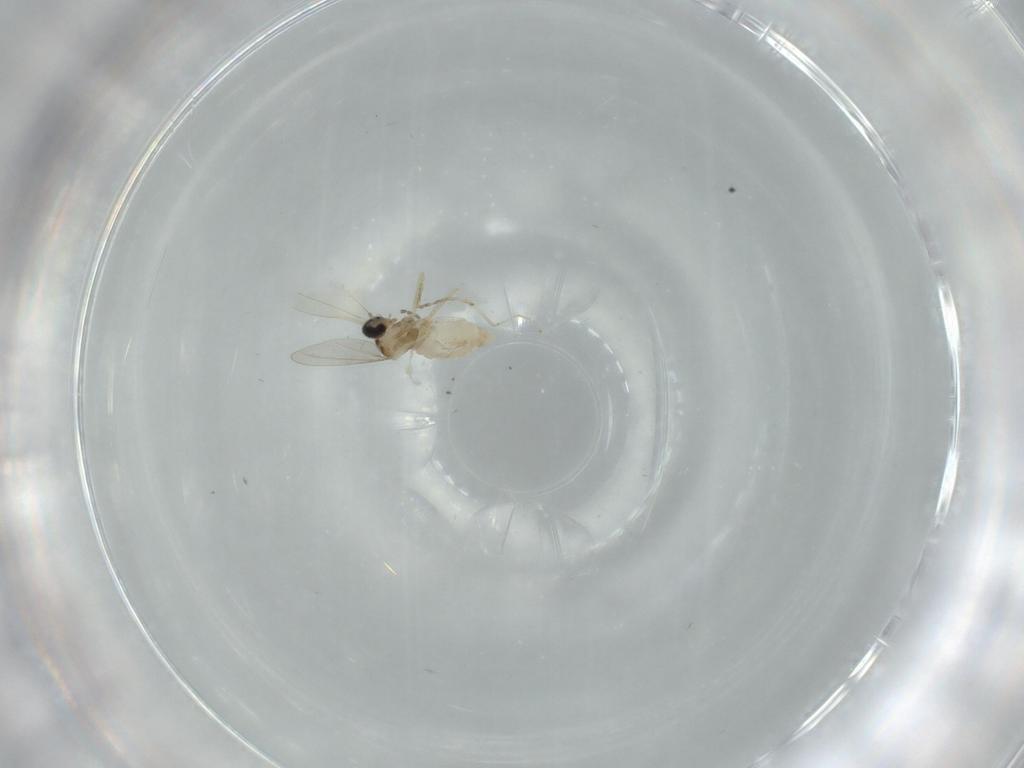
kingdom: Animalia
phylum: Arthropoda
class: Insecta
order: Diptera
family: Cecidomyiidae
